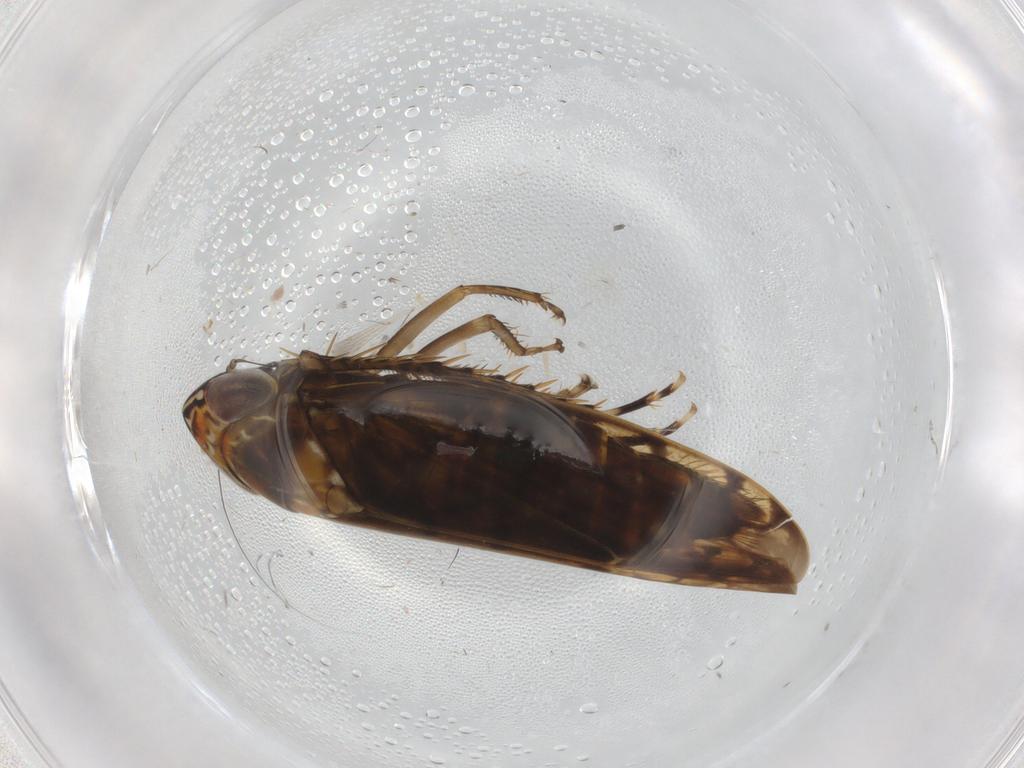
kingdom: Animalia
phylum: Arthropoda
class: Insecta
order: Hemiptera
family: Cicadellidae
